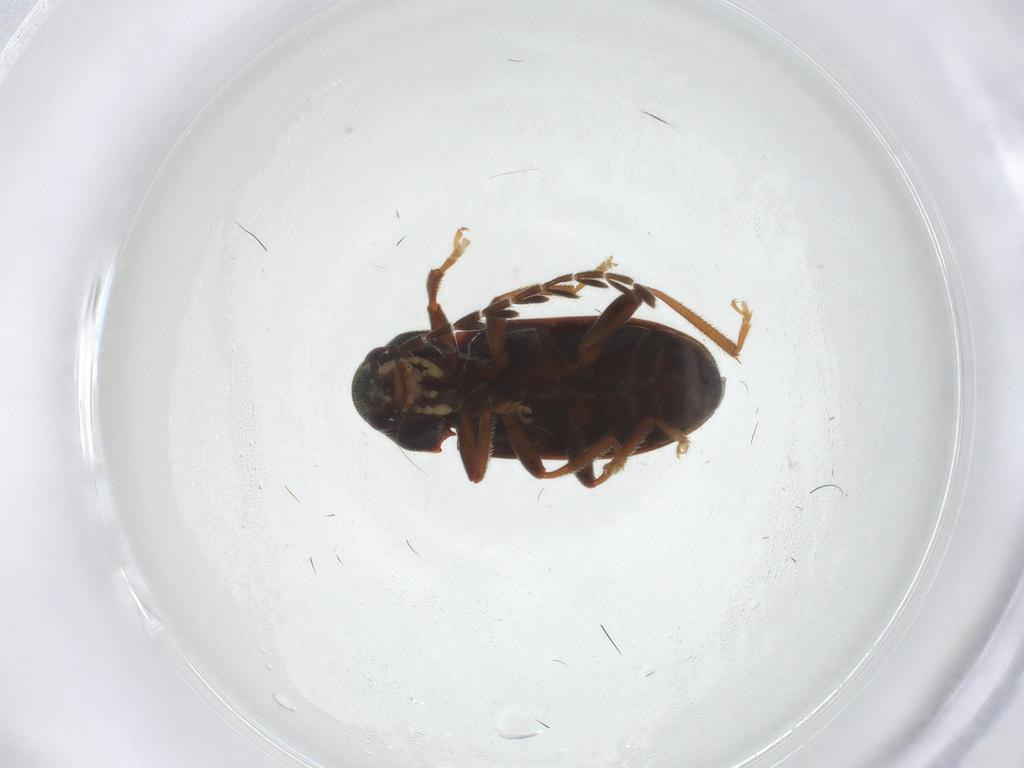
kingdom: Animalia
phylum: Arthropoda
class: Insecta
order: Coleoptera
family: Ptilodactylidae
